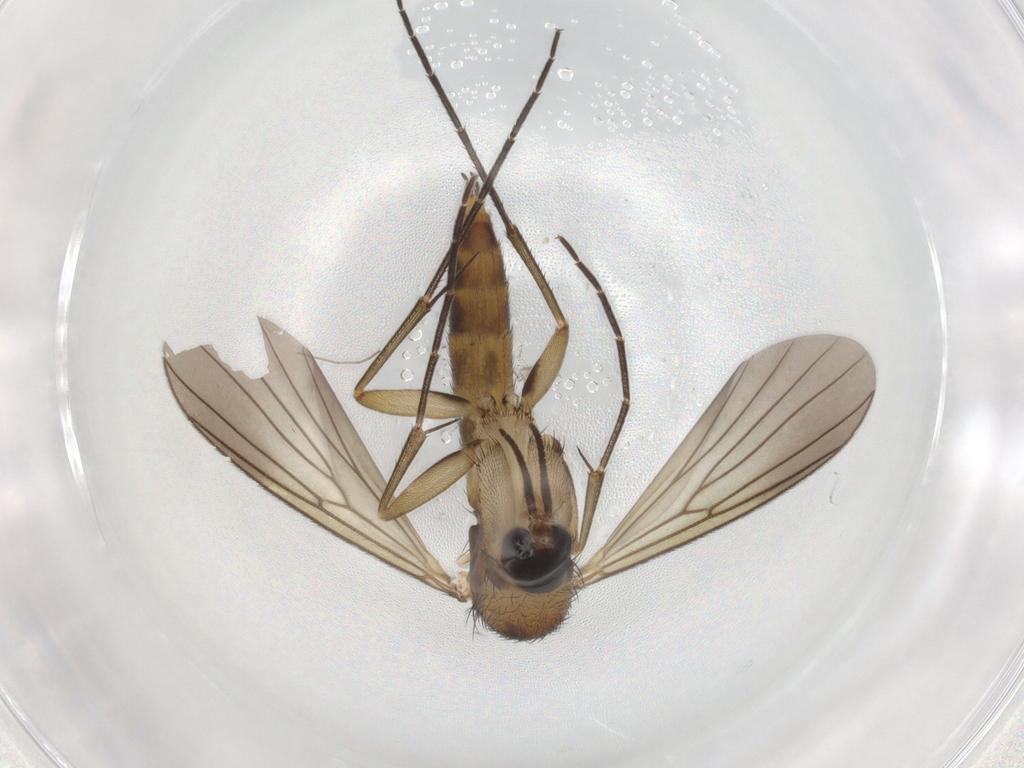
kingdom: Animalia
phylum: Arthropoda
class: Insecta
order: Diptera
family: Mycetophilidae
